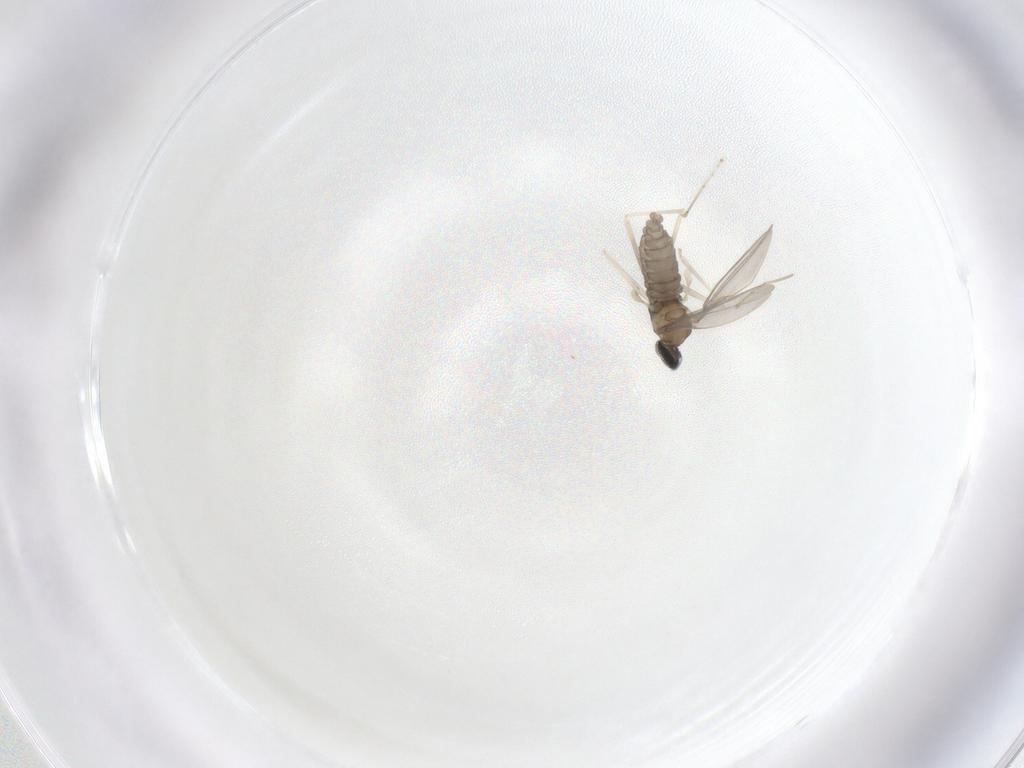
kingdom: Animalia
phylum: Arthropoda
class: Insecta
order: Diptera
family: Cecidomyiidae
